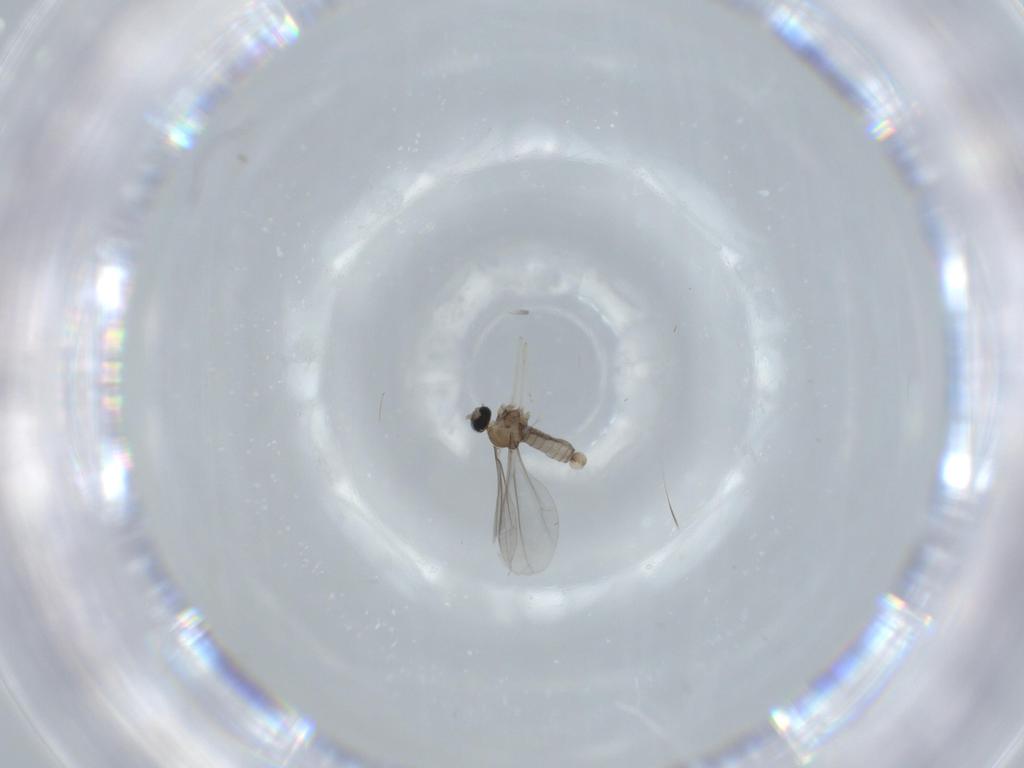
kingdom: Animalia
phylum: Arthropoda
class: Insecta
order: Diptera
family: Cecidomyiidae
